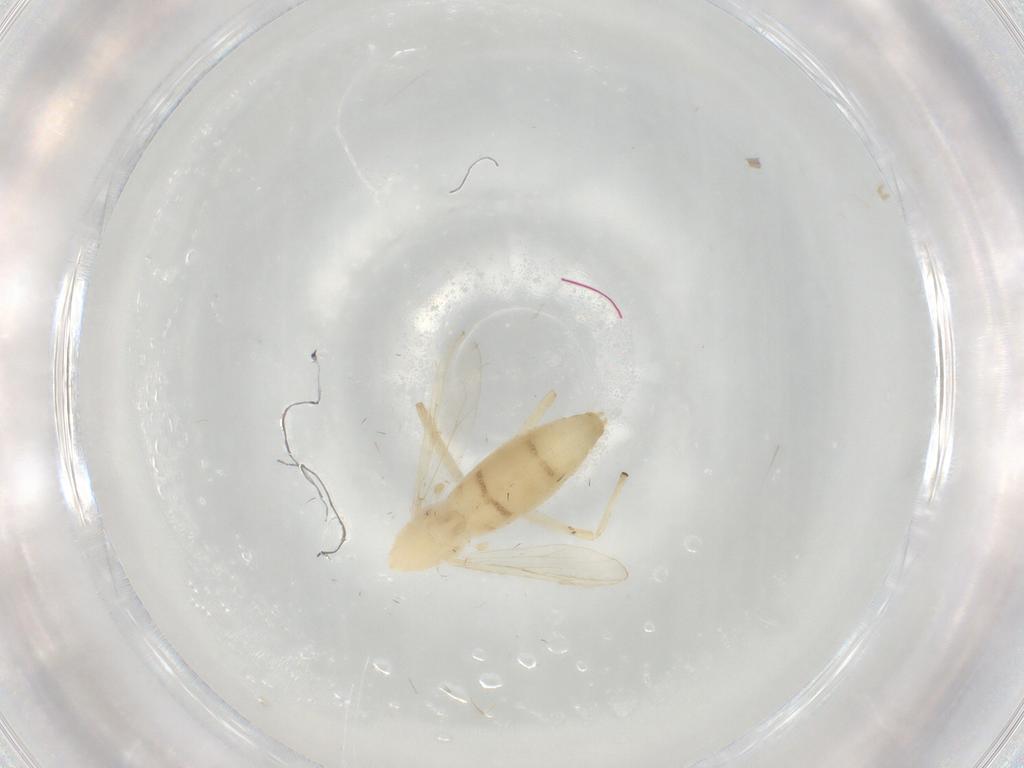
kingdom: Animalia
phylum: Arthropoda
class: Insecta
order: Diptera
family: Chironomidae
